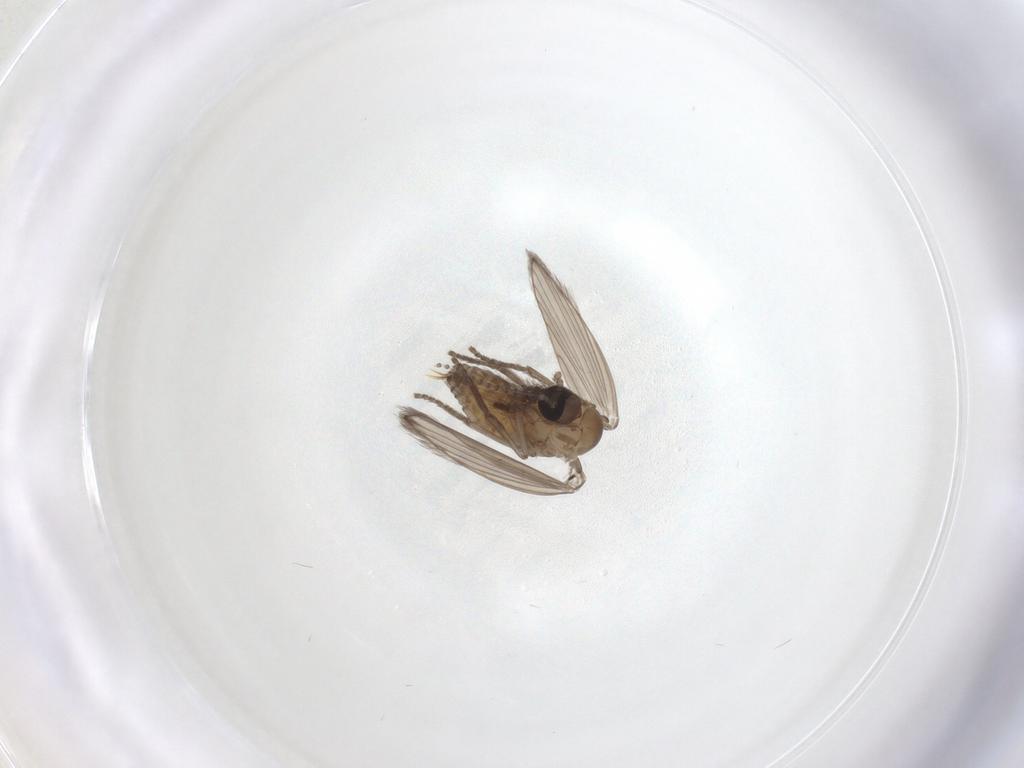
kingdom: Animalia
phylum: Arthropoda
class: Insecta
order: Diptera
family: Psychodidae
